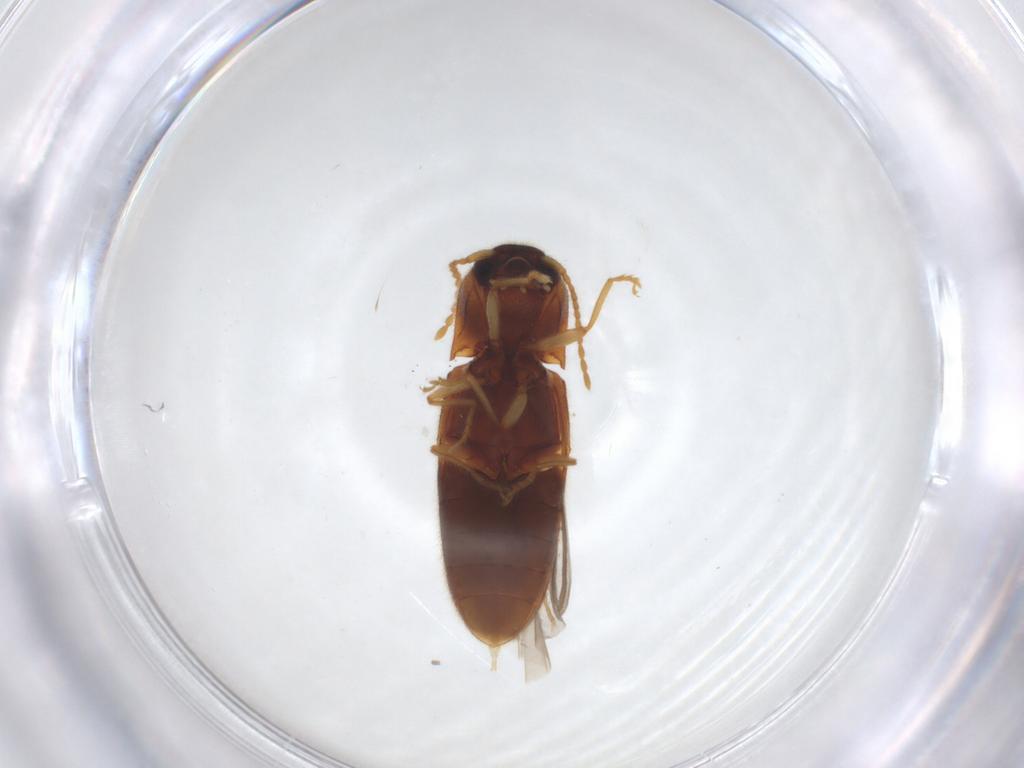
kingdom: Animalia
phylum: Arthropoda
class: Insecta
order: Coleoptera
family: Elateridae
